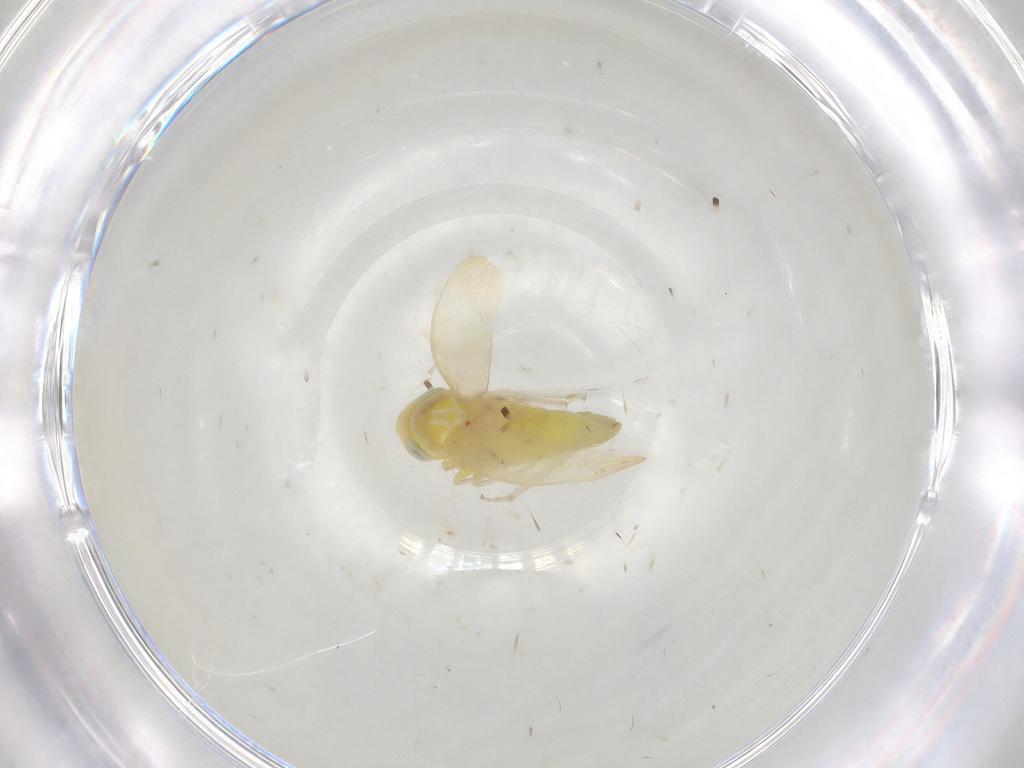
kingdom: Animalia
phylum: Arthropoda
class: Insecta
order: Hemiptera
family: Cicadellidae
